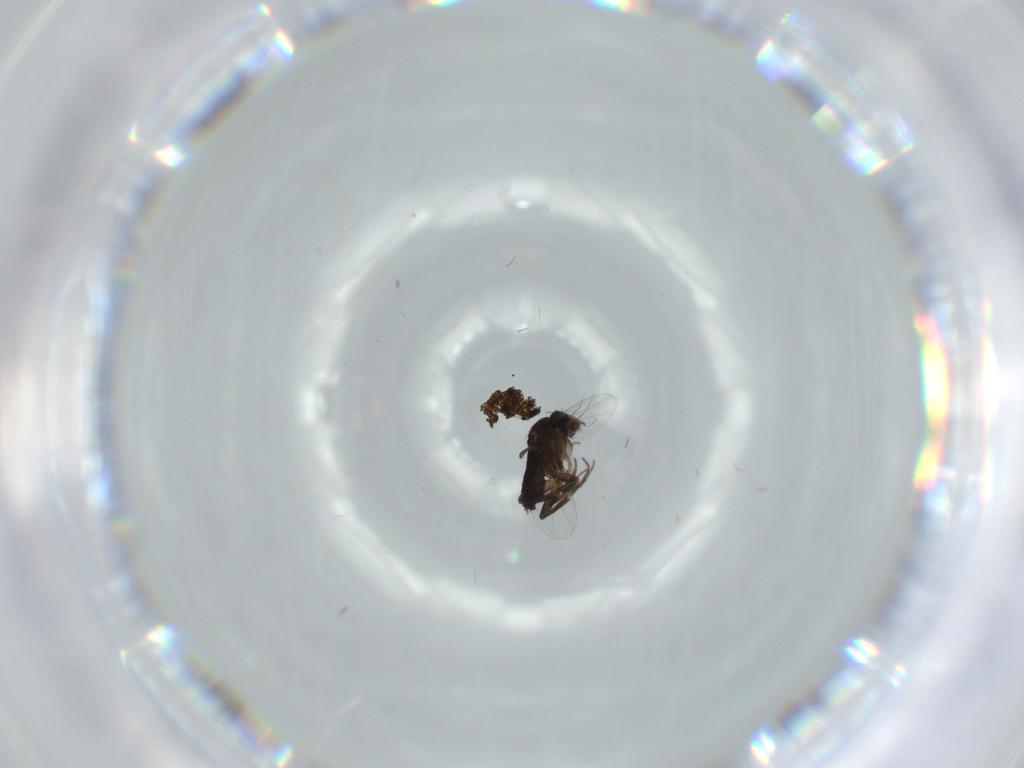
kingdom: Animalia
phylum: Arthropoda
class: Insecta
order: Diptera
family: Phoridae
